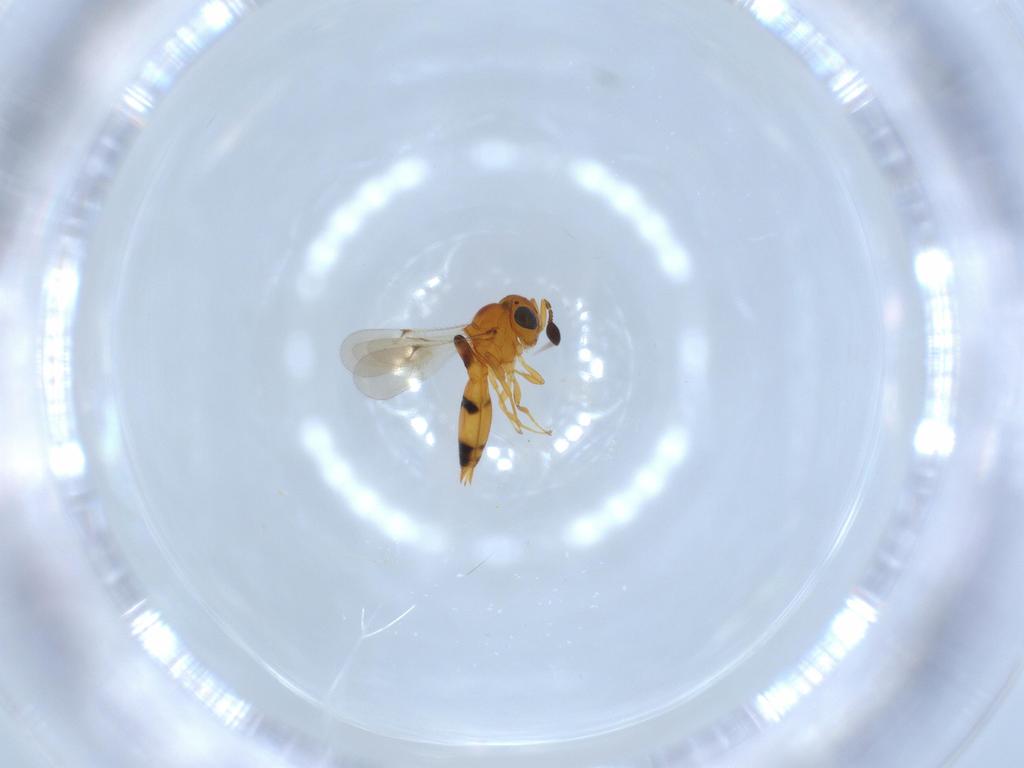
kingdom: Animalia
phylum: Arthropoda
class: Insecta
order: Hymenoptera
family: Scelionidae
